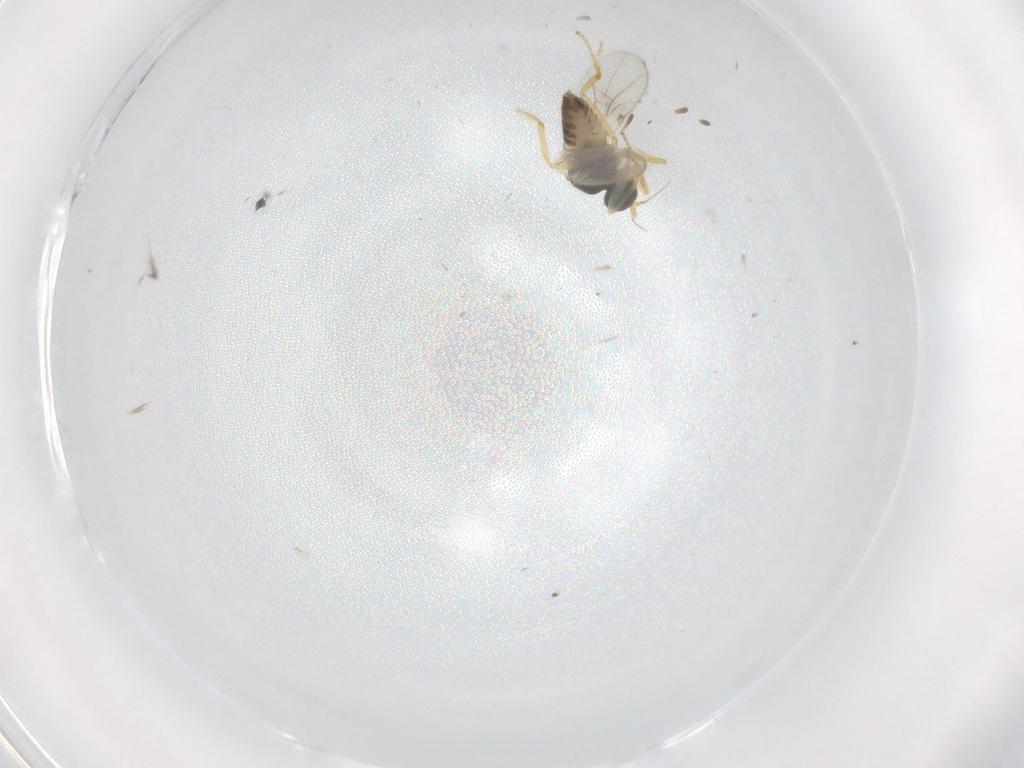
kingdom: Animalia
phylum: Arthropoda
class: Insecta
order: Diptera
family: Hybotidae
